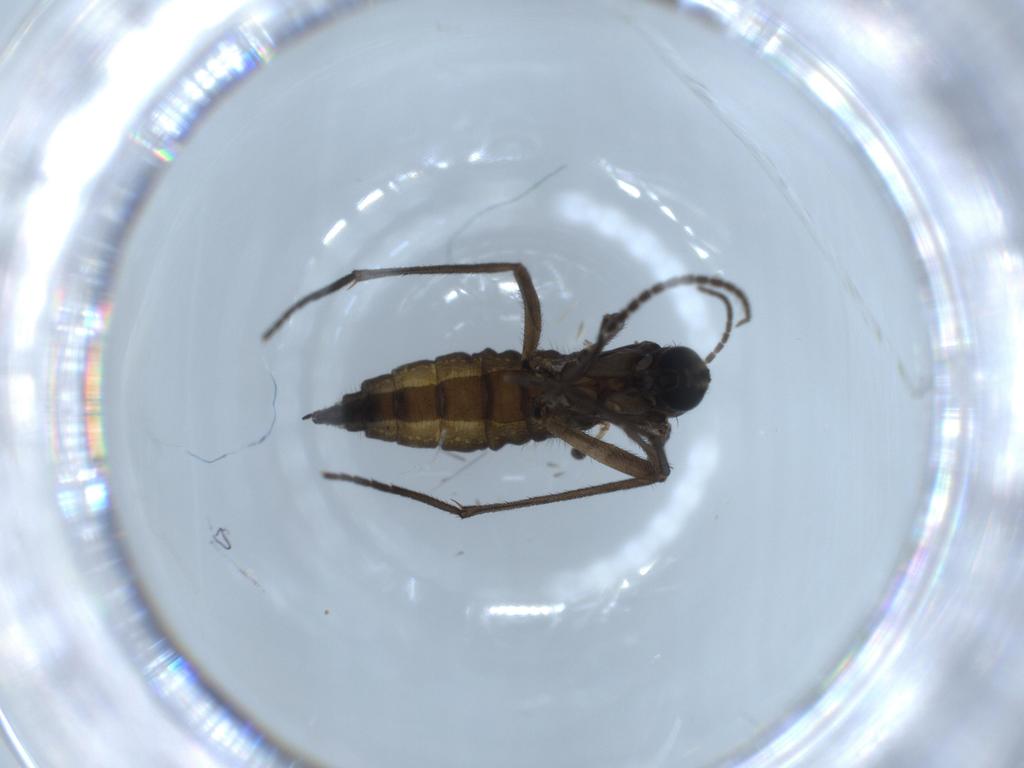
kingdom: Animalia
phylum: Arthropoda
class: Insecta
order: Diptera
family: Sciaridae
